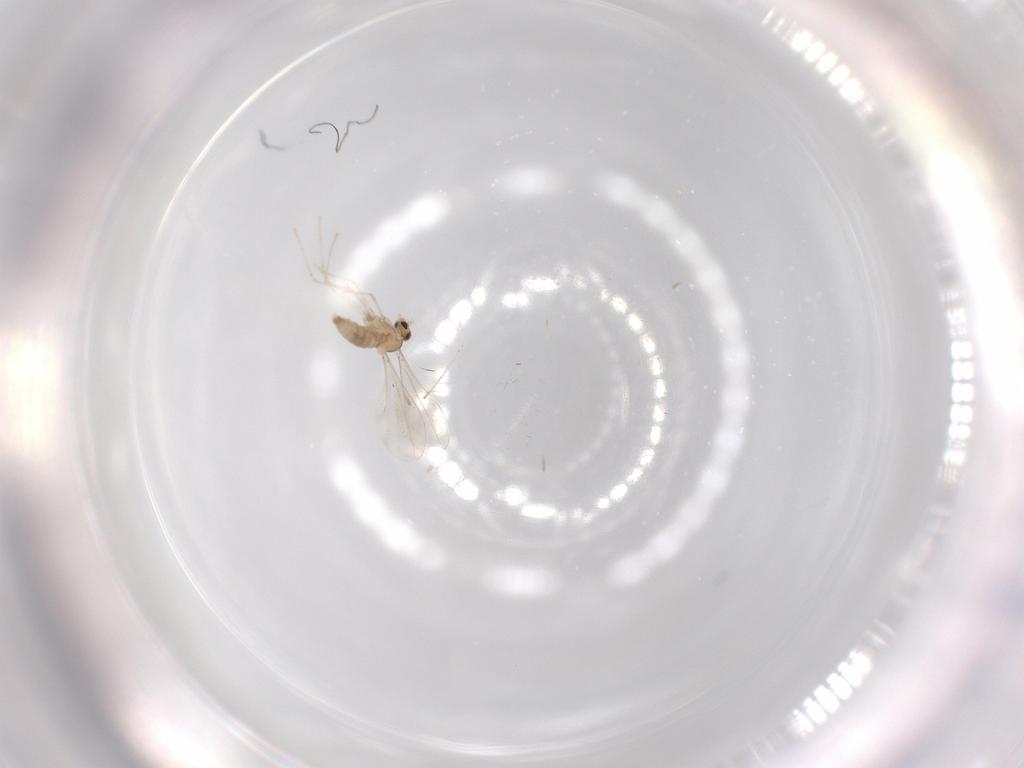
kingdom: Animalia
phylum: Arthropoda
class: Insecta
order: Diptera
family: Cecidomyiidae
